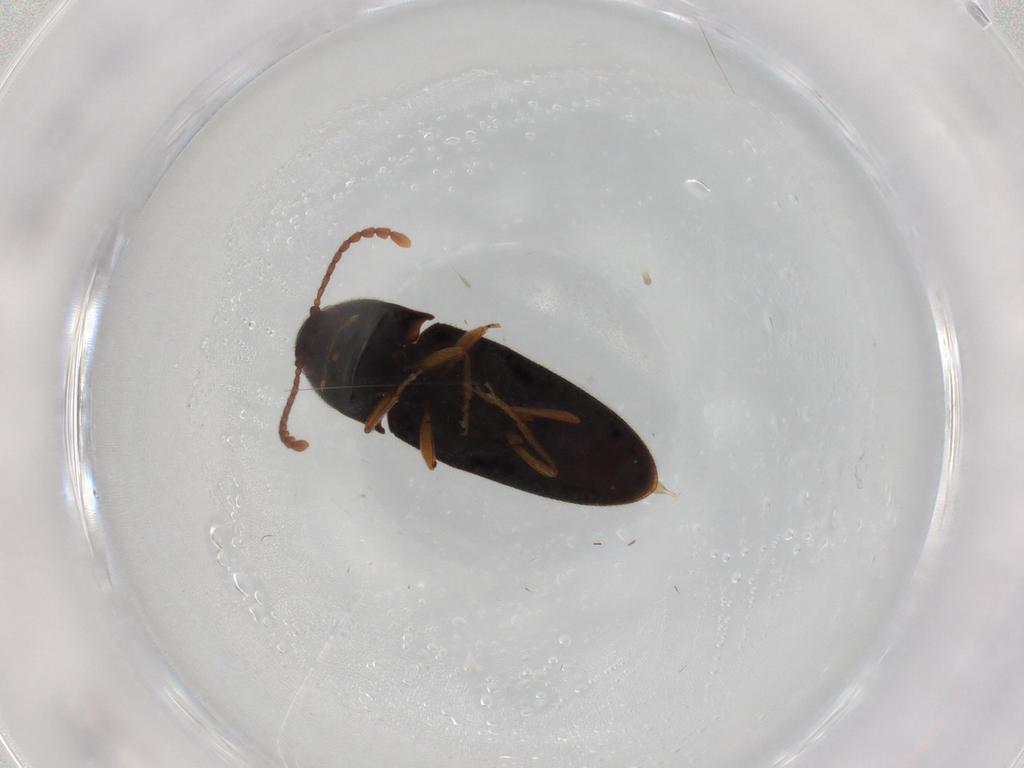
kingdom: Animalia
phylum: Arthropoda
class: Insecta
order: Coleoptera
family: Elateridae
